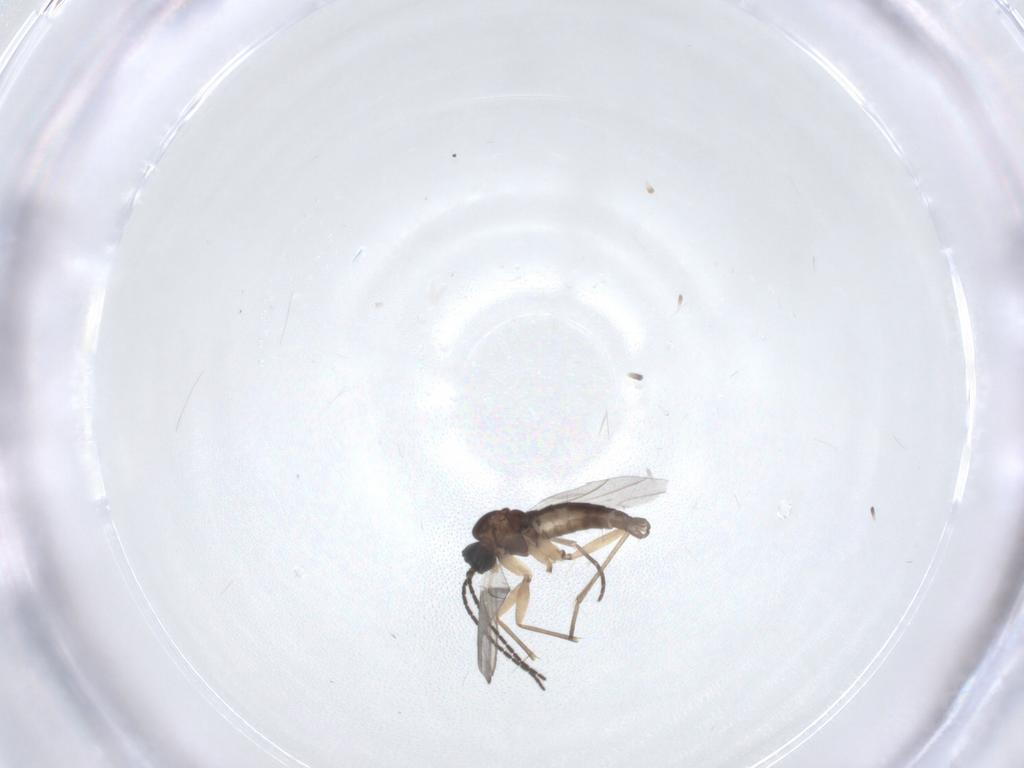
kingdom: Animalia
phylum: Arthropoda
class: Insecta
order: Diptera
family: Sciaridae
